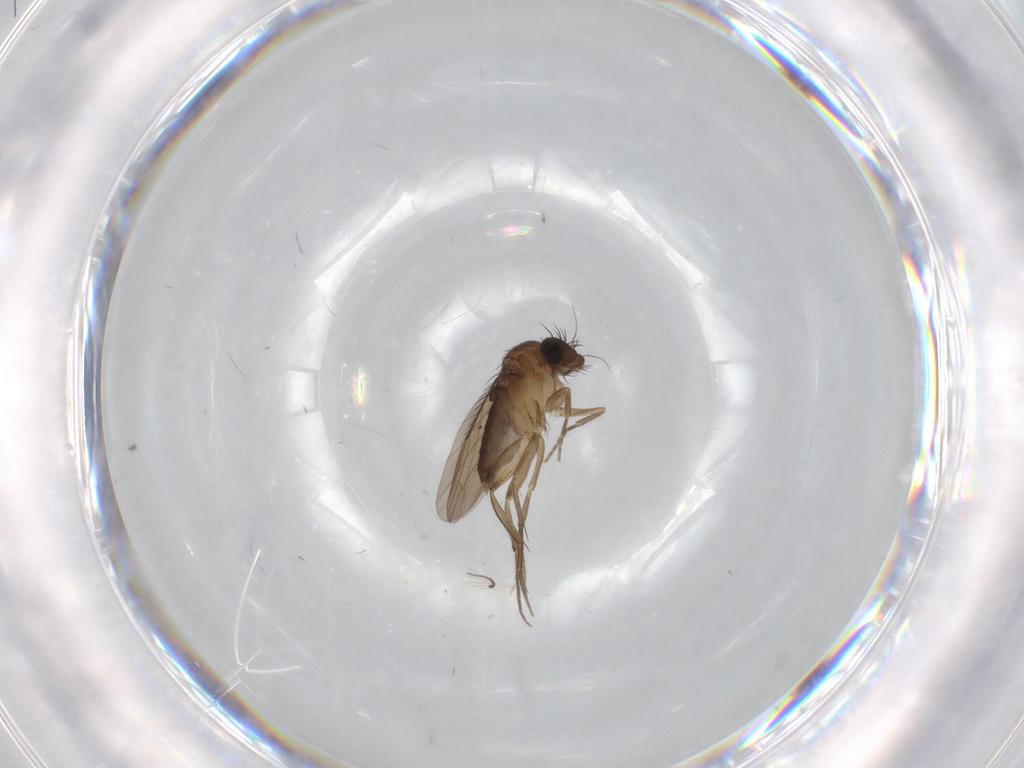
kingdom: Animalia
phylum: Arthropoda
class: Insecta
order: Diptera
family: Phoridae
